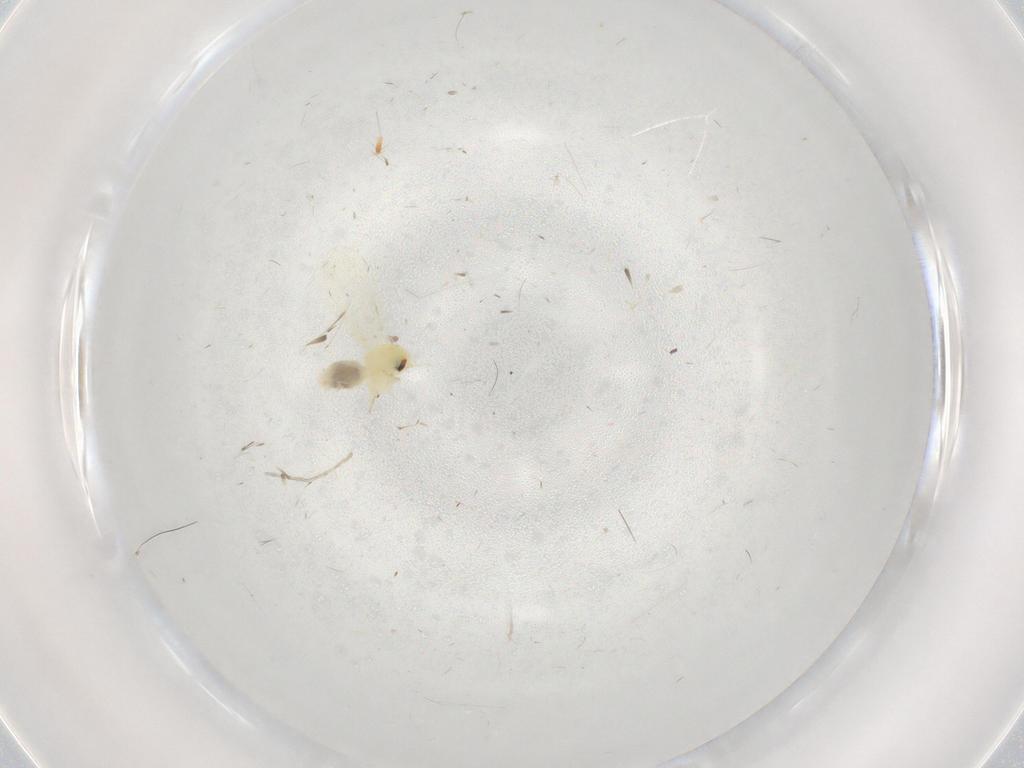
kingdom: Animalia
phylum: Arthropoda
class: Insecta
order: Hemiptera
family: Aleyrodidae
